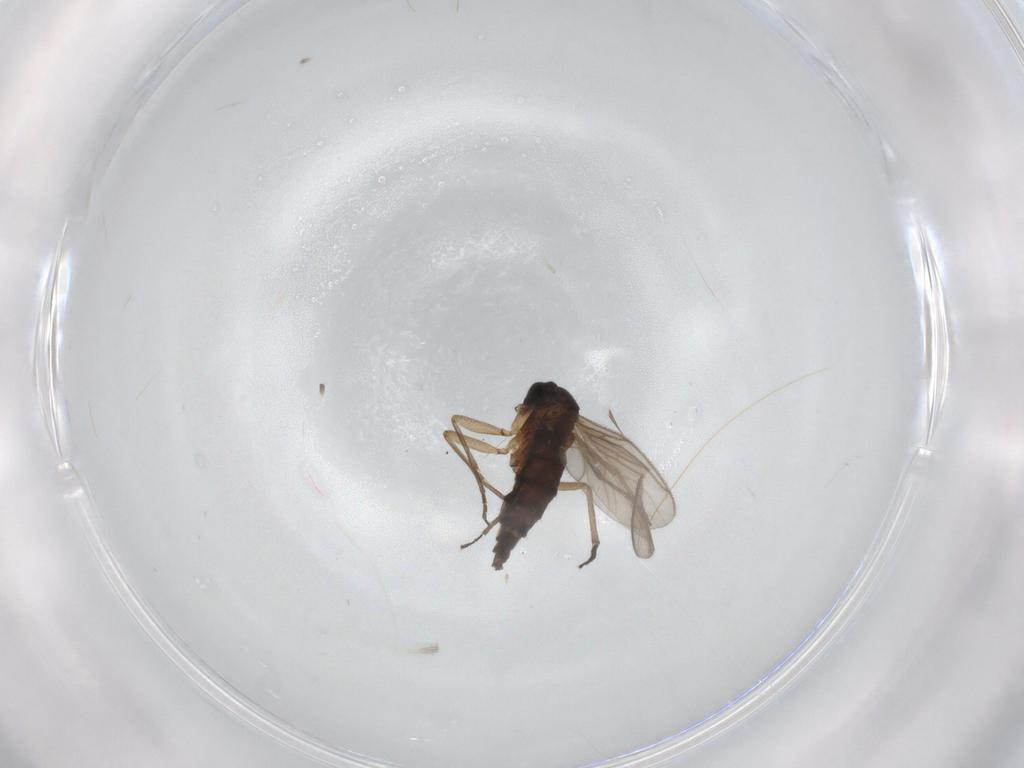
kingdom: Animalia
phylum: Arthropoda
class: Insecta
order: Diptera
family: Sciaridae
